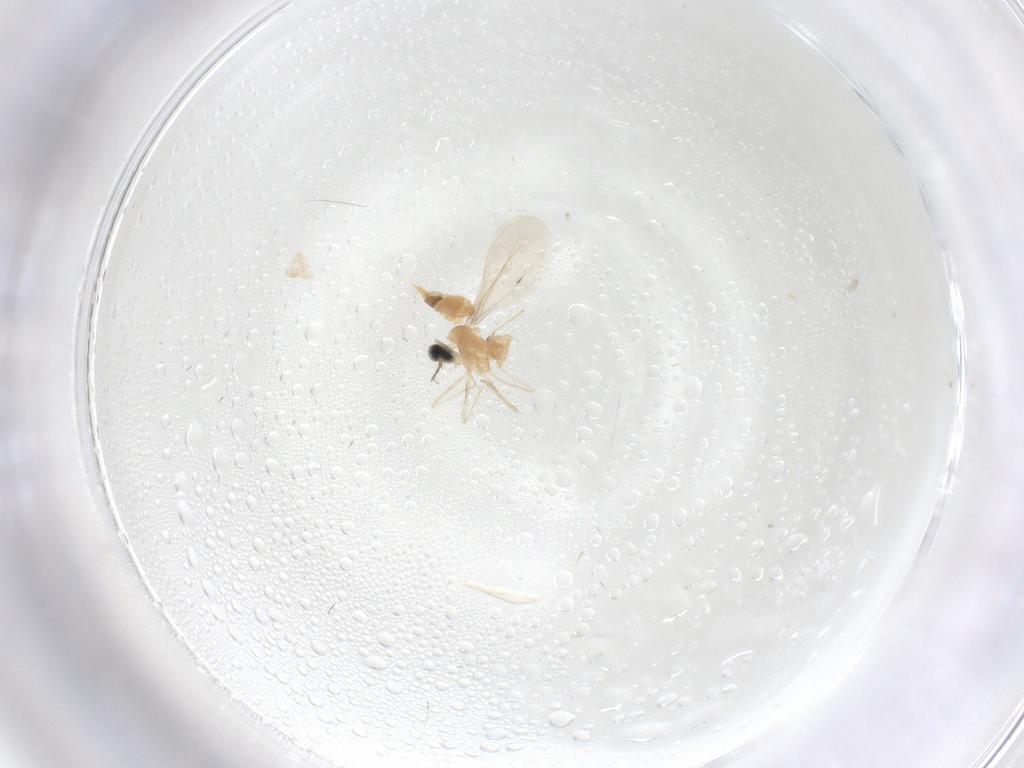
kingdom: Animalia
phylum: Arthropoda
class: Insecta
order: Diptera
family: Cecidomyiidae
